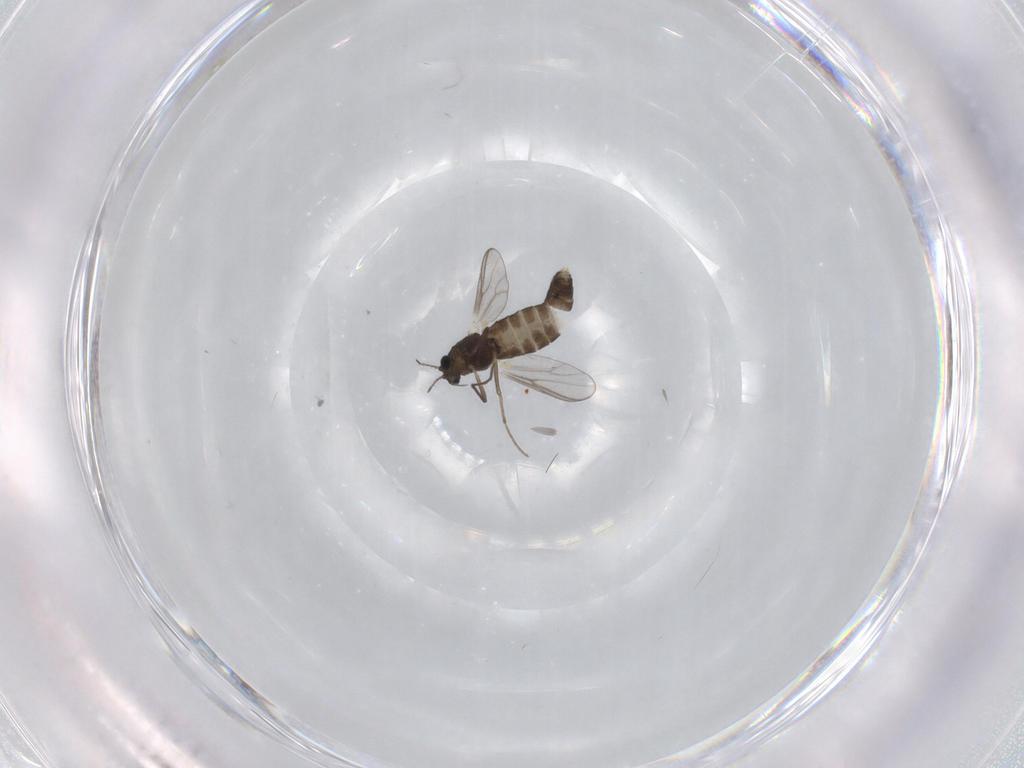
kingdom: Animalia
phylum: Arthropoda
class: Insecta
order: Diptera
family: Chironomidae
